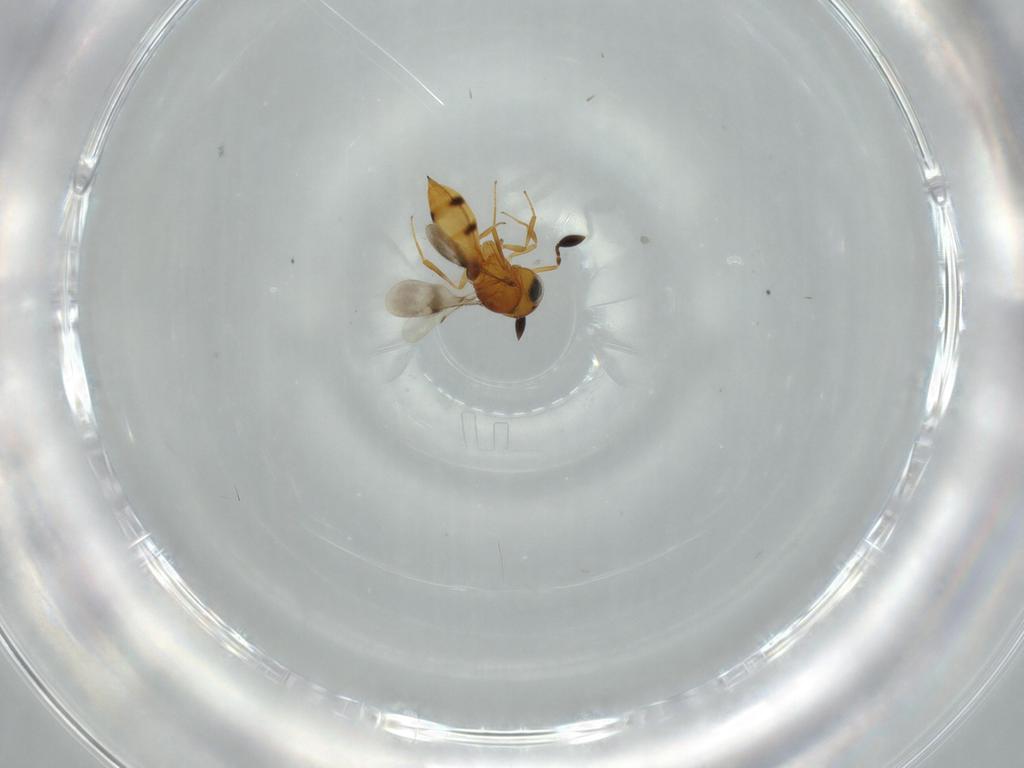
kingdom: Animalia
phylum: Arthropoda
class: Insecta
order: Hymenoptera
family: Scelionidae
